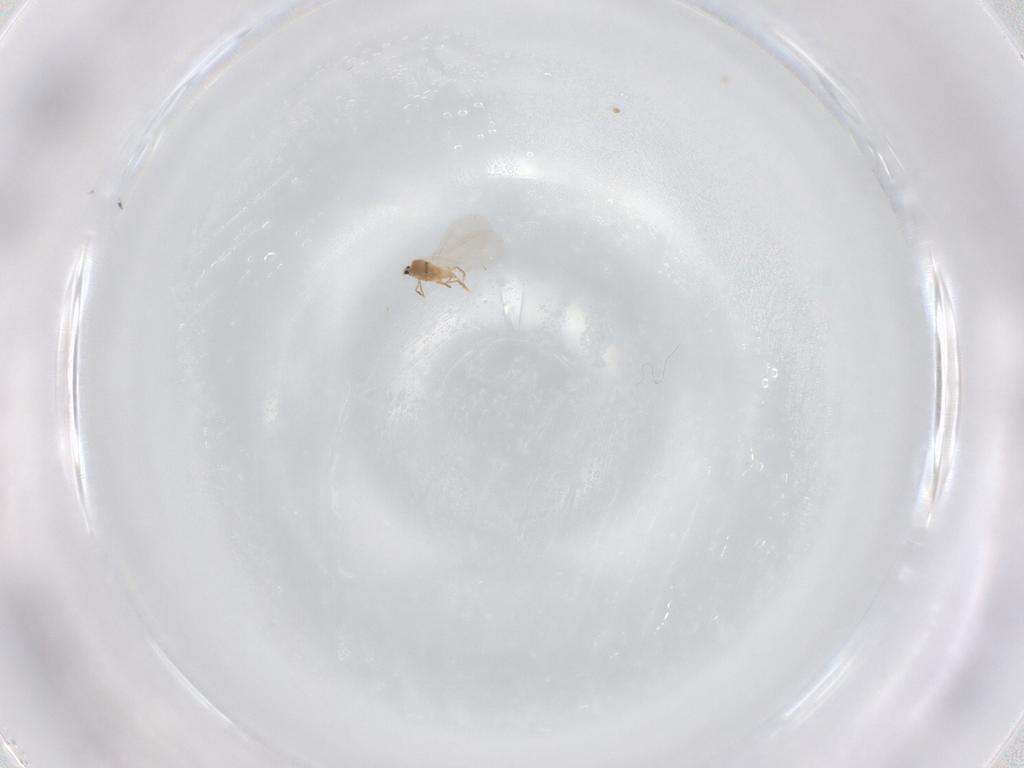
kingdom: Animalia
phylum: Arthropoda
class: Insecta
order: Hemiptera
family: Diaspididae
